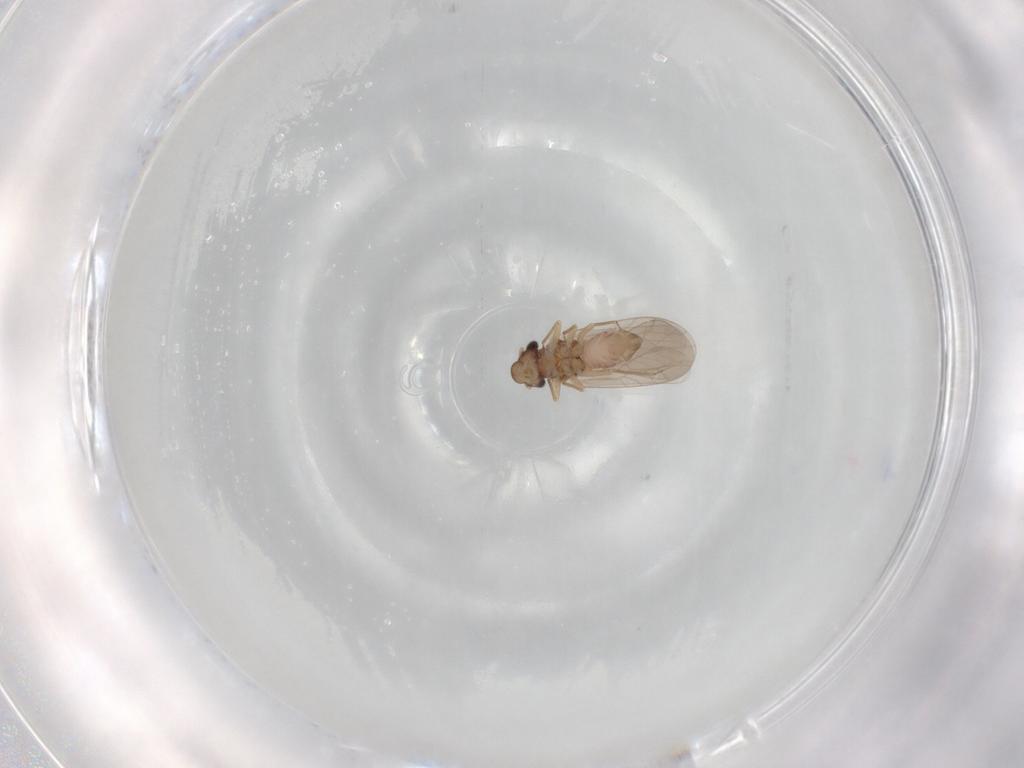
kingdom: Animalia
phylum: Arthropoda
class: Insecta
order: Psocodea
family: Lepidopsocidae
